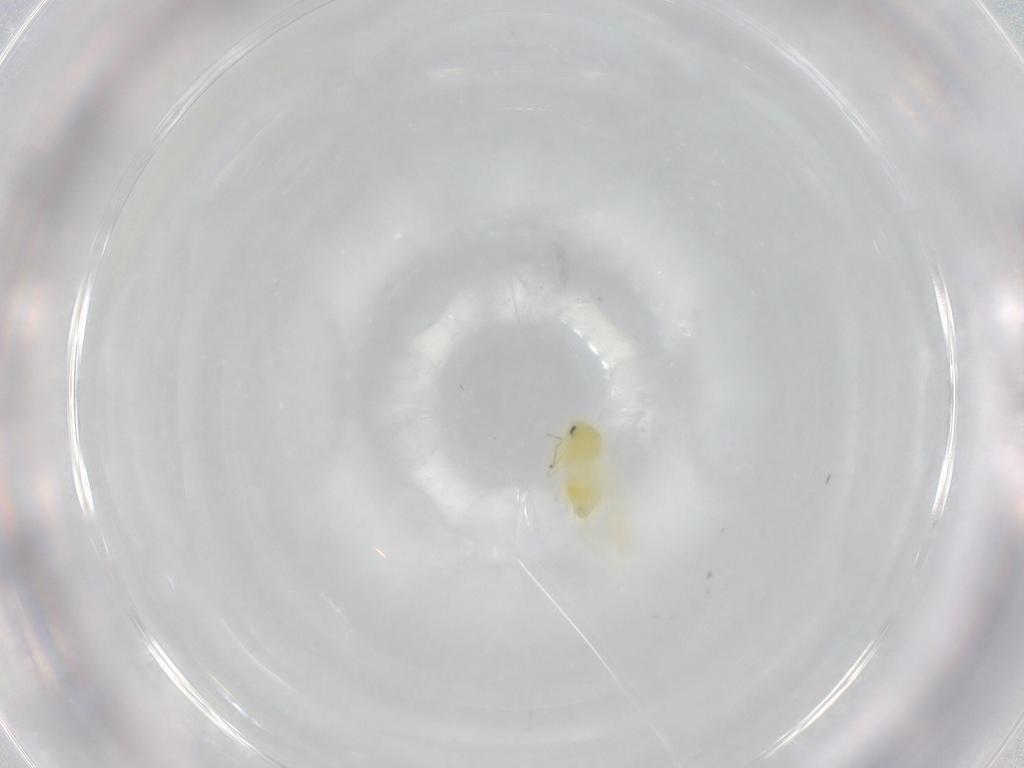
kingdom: Animalia
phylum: Arthropoda
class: Insecta
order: Hemiptera
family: Aleyrodidae
